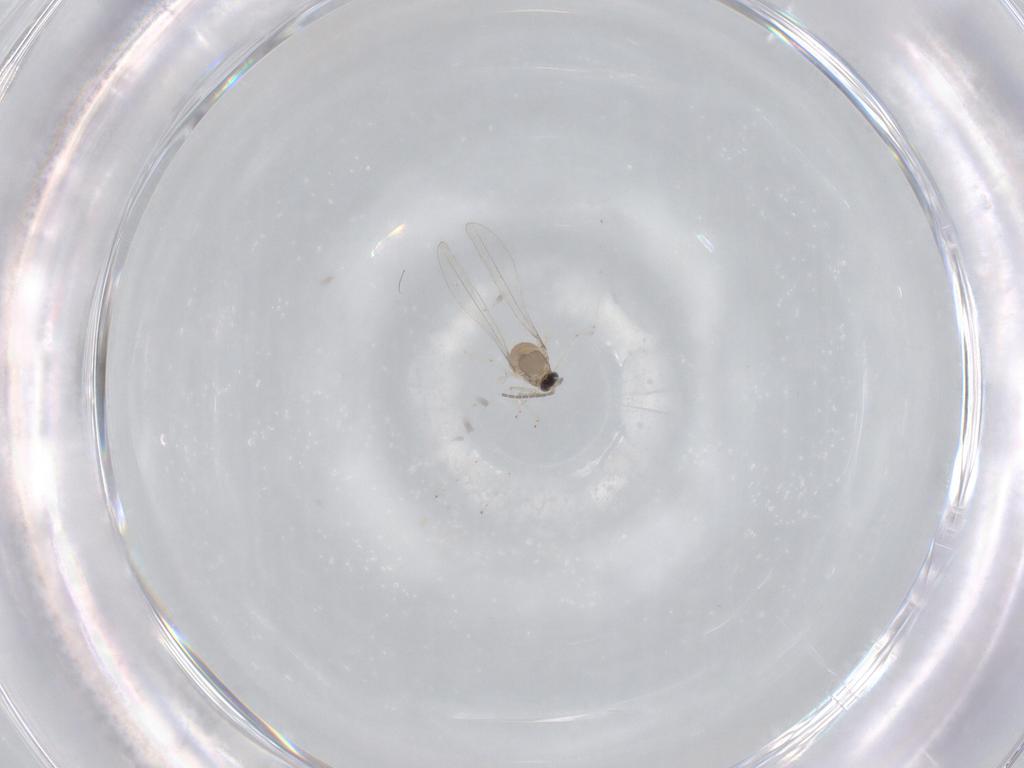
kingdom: Animalia
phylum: Arthropoda
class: Insecta
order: Diptera
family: Cecidomyiidae
